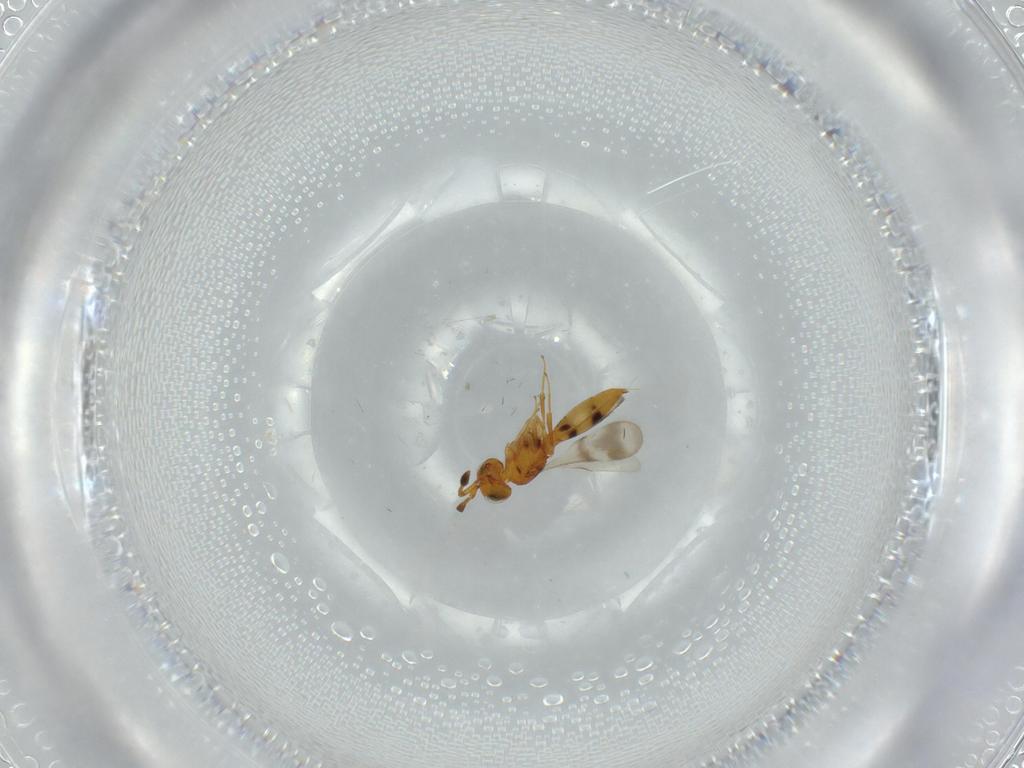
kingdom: Animalia
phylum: Arthropoda
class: Insecta
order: Hymenoptera
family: Scelionidae
